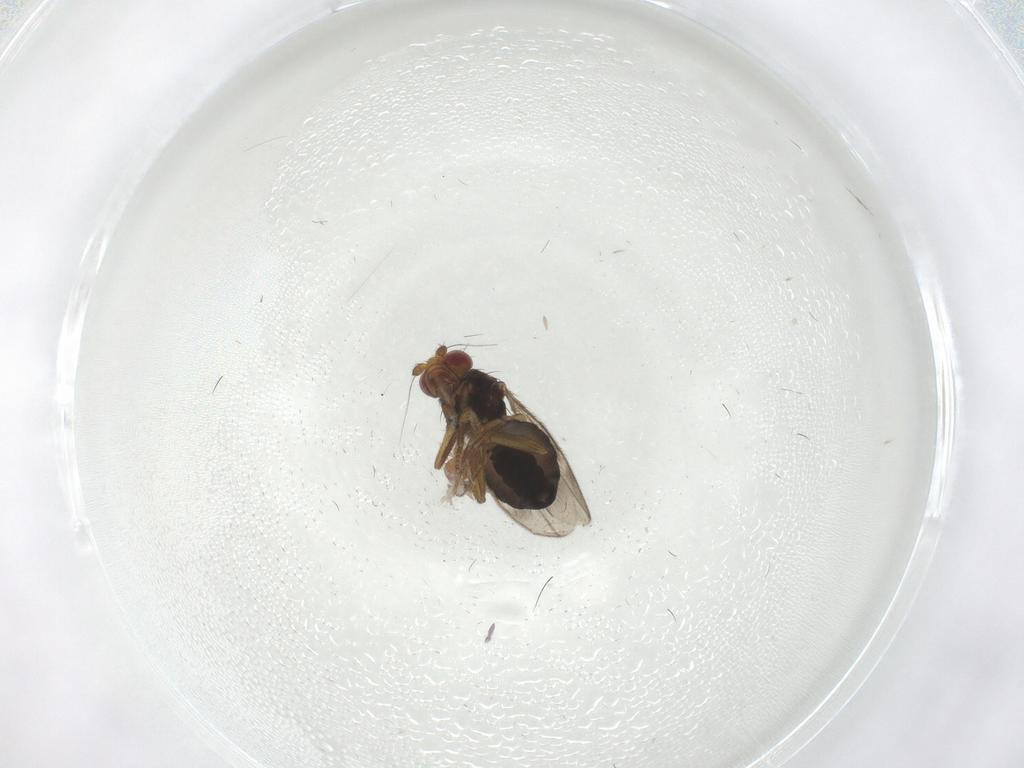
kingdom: Animalia
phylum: Arthropoda
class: Insecta
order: Diptera
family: Sphaeroceridae
